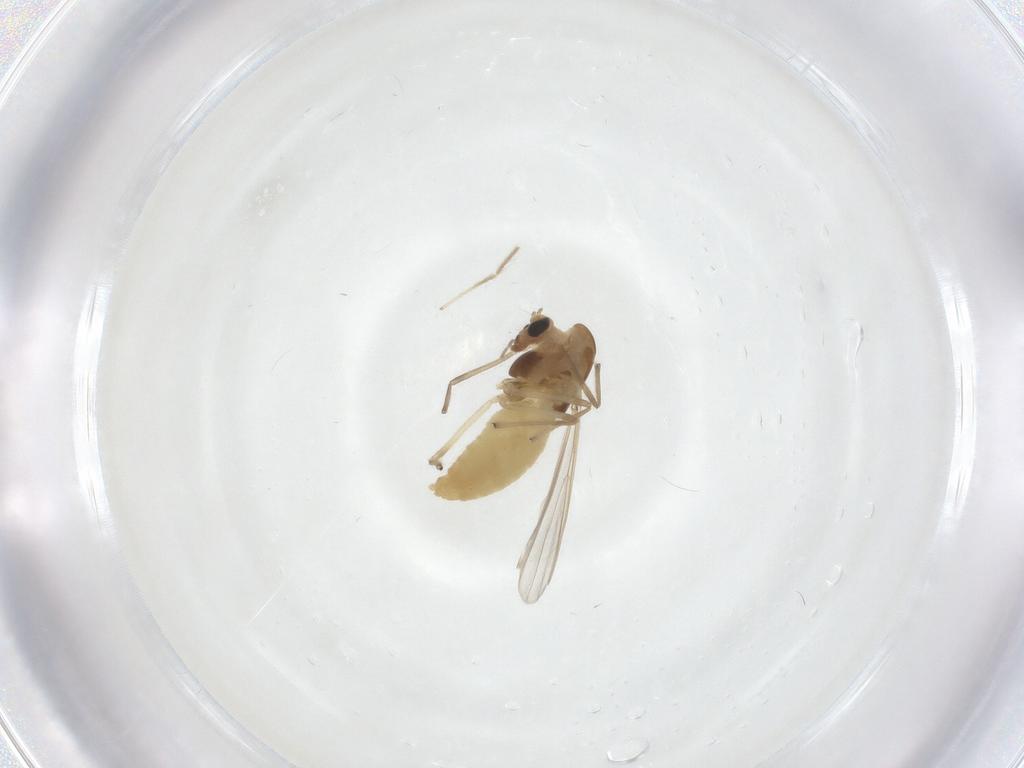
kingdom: Animalia
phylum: Arthropoda
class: Insecta
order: Diptera
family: Chironomidae
